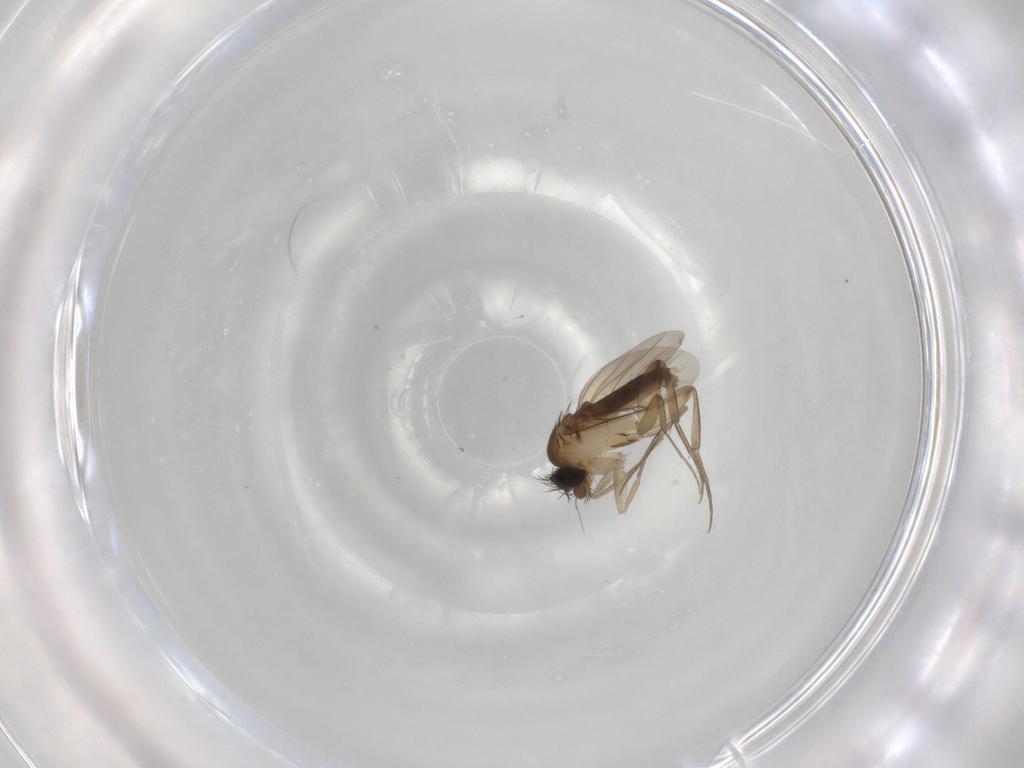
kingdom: Animalia
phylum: Arthropoda
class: Insecta
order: Diptera
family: Phoridae
